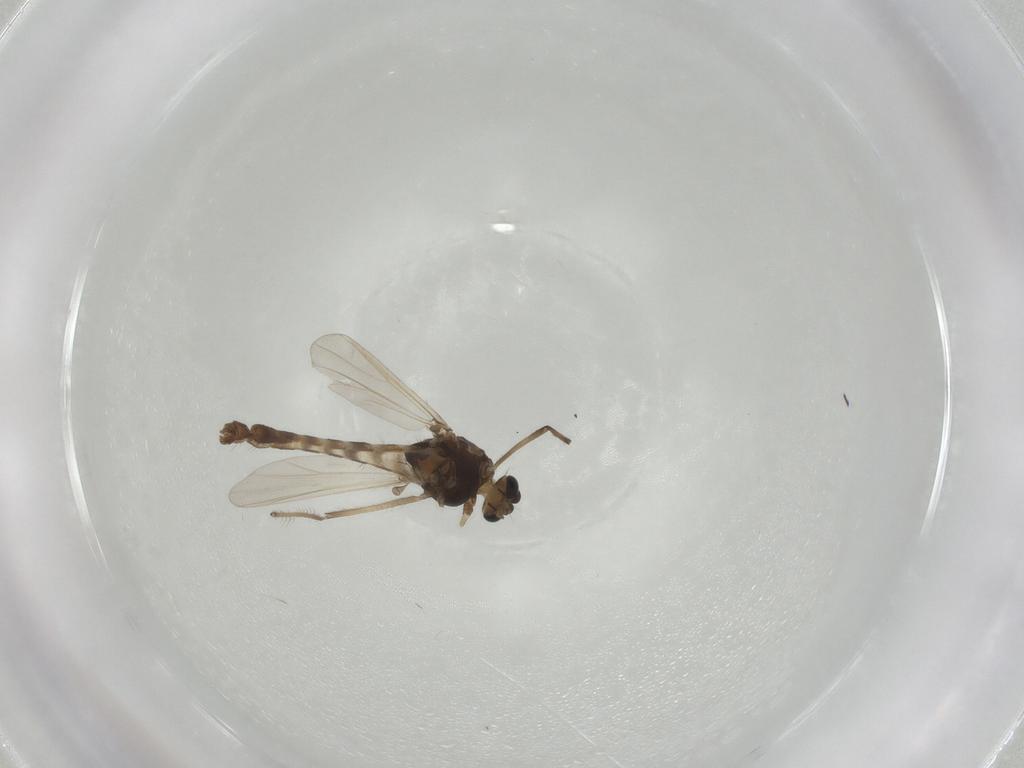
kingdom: Animalia
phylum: Arthropoda
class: Insecta
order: Diptera
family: Chironomidae
